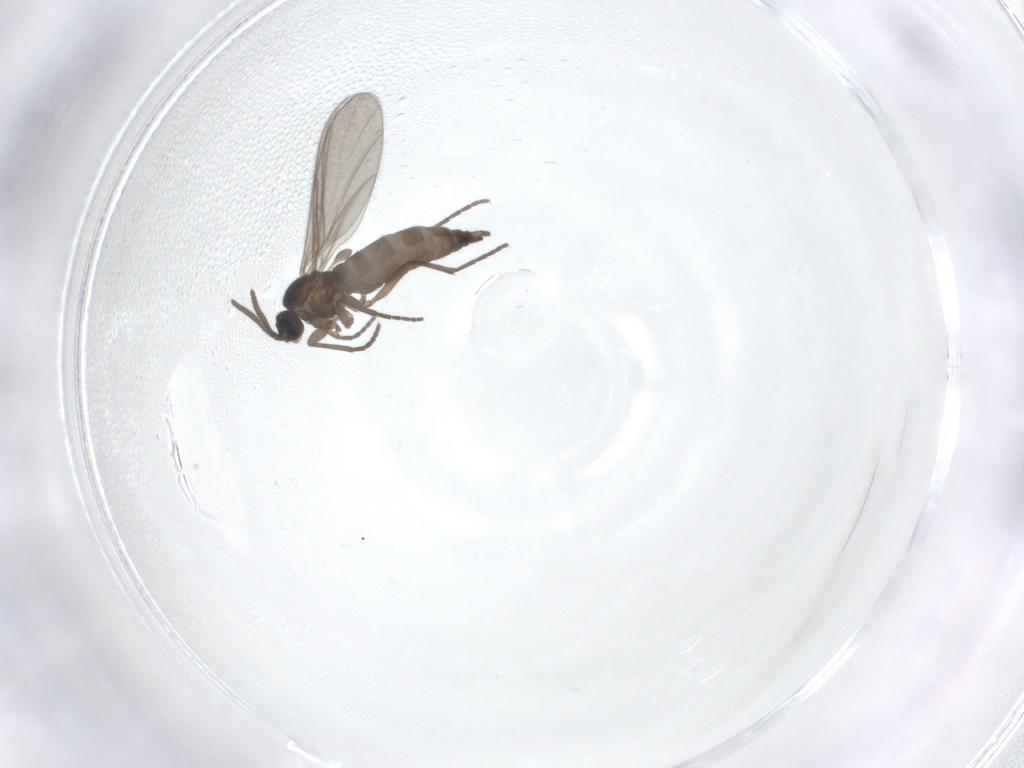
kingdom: Animalia
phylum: Arthropoda
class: Insecta
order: Diptera
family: Sciaridae
